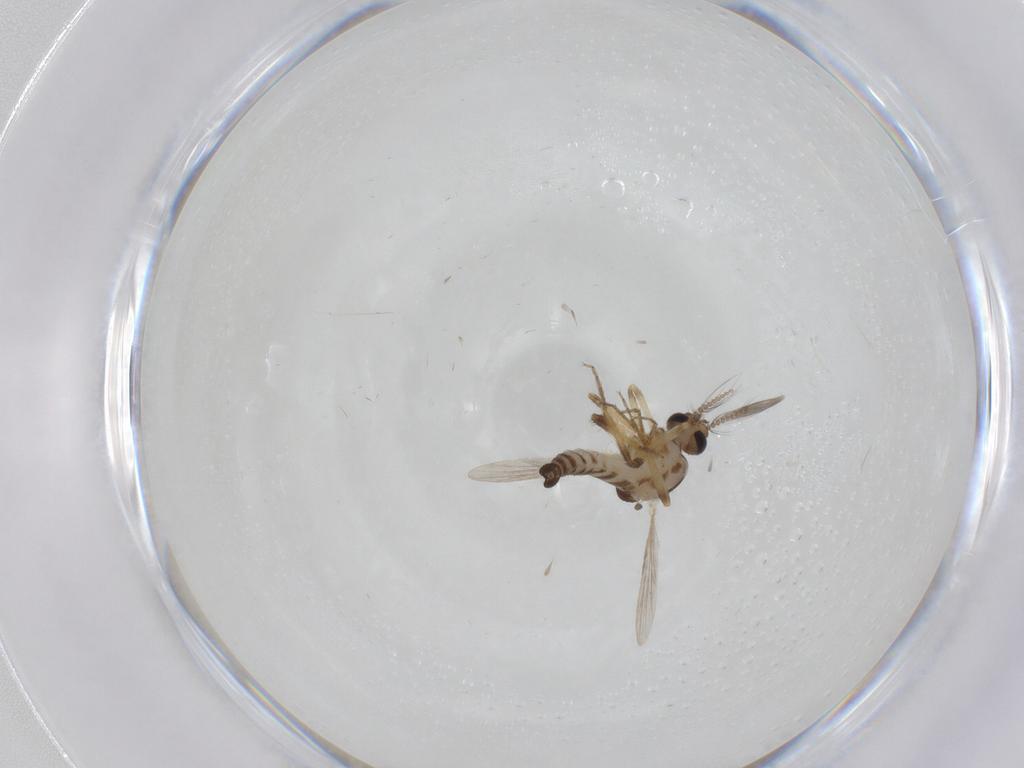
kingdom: Animalia
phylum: Arthropoda
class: Insecta
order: Diptera
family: Ceratopogonidae
